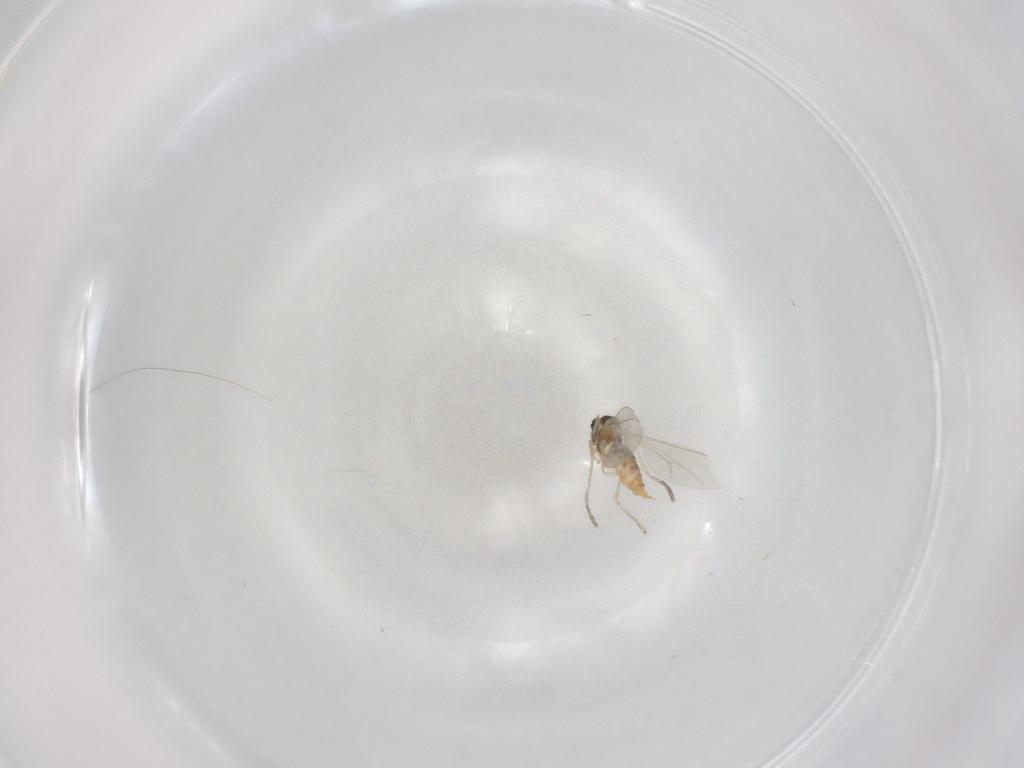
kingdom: Animalia
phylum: Arthropoda
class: Insecta
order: Diptera
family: Cecidomyiidae
